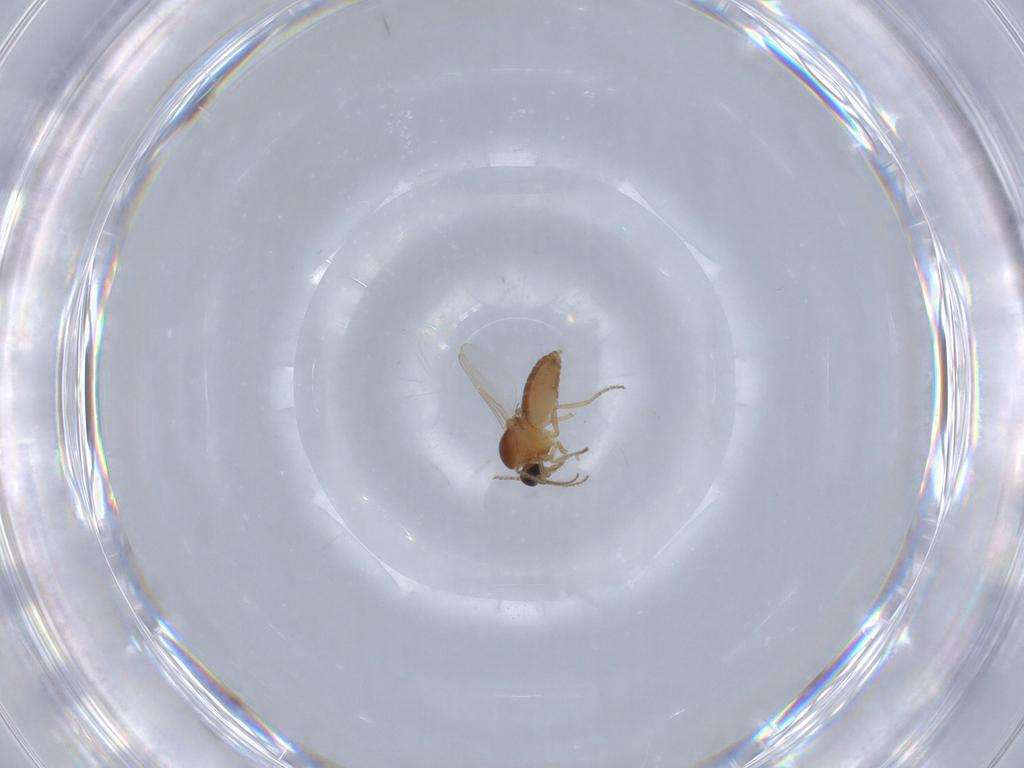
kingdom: Animalia
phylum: Arthropoda
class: Insecta
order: Diptera
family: Ceratopogonidae
